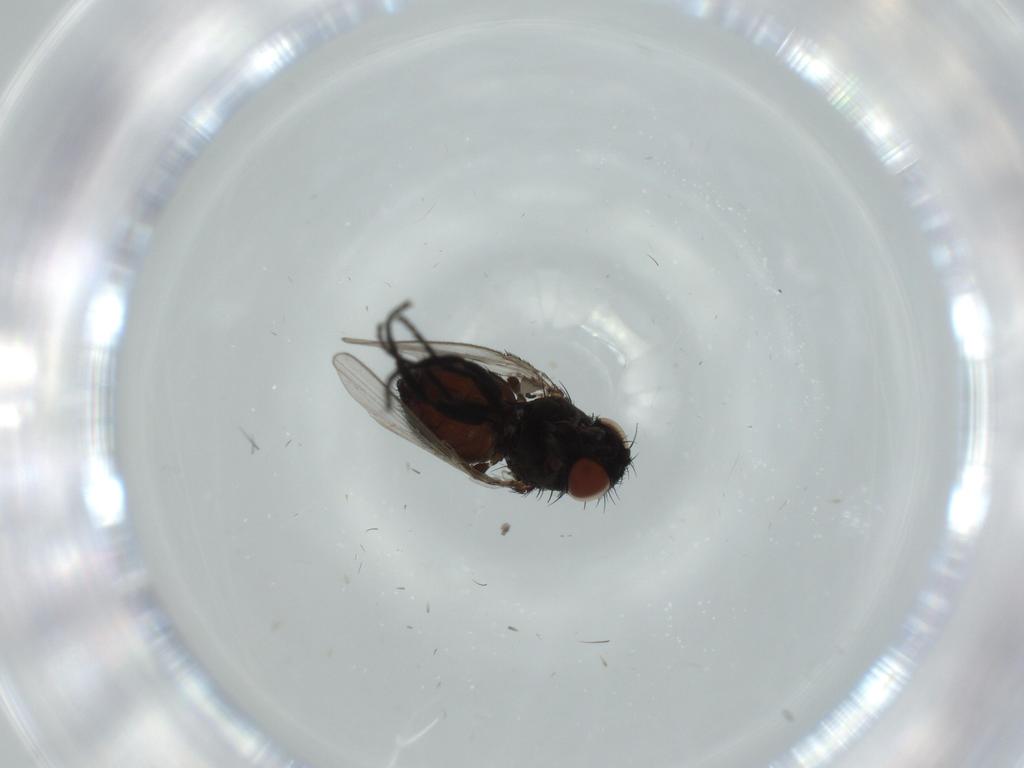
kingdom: Animalia
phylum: Arthropoda
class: Insecta
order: Diptera
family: Milichiidae
